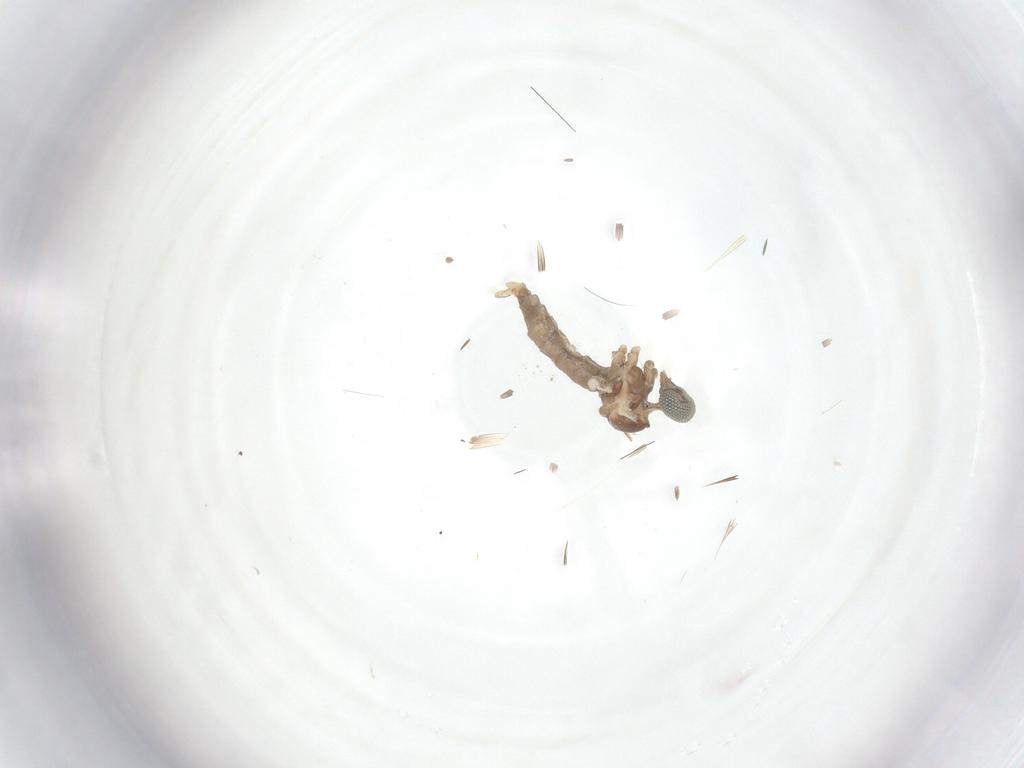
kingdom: Animalia
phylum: Arthropoda
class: Insecta
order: Diptera
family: Cecidomyiidae
